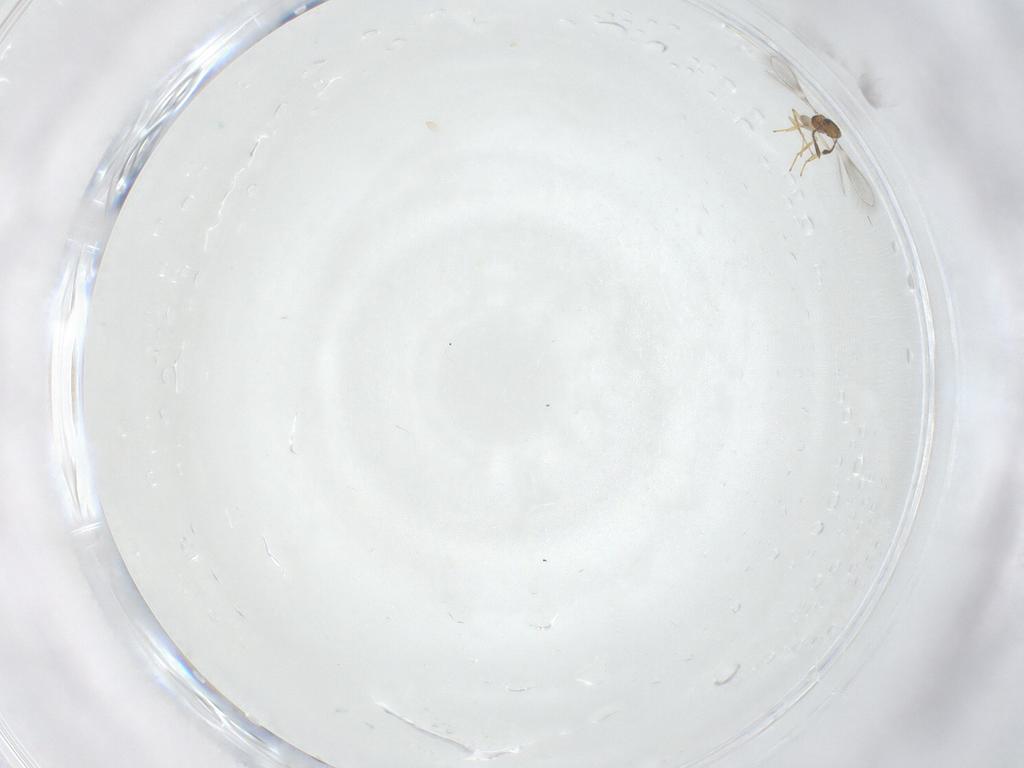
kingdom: Animalia
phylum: Arthropoda
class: Insecta
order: Hymenoptera
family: Mymaridae
